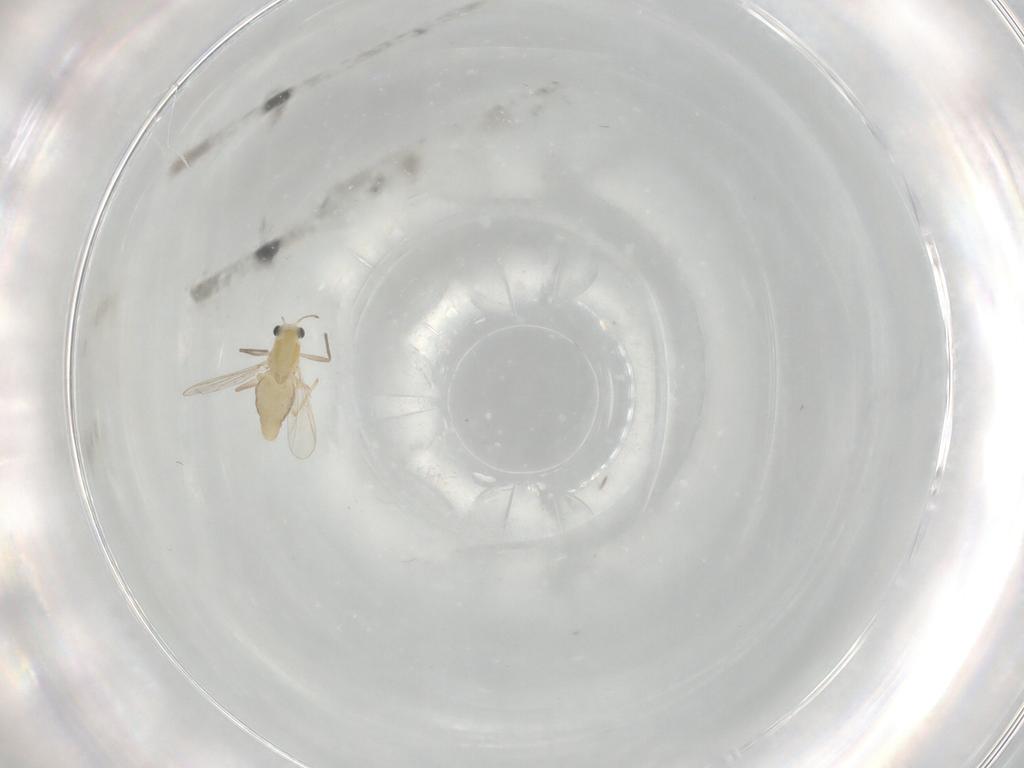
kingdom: Animalia
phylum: Arthropoda
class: Insecta
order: Diptera
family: Chironomidae
